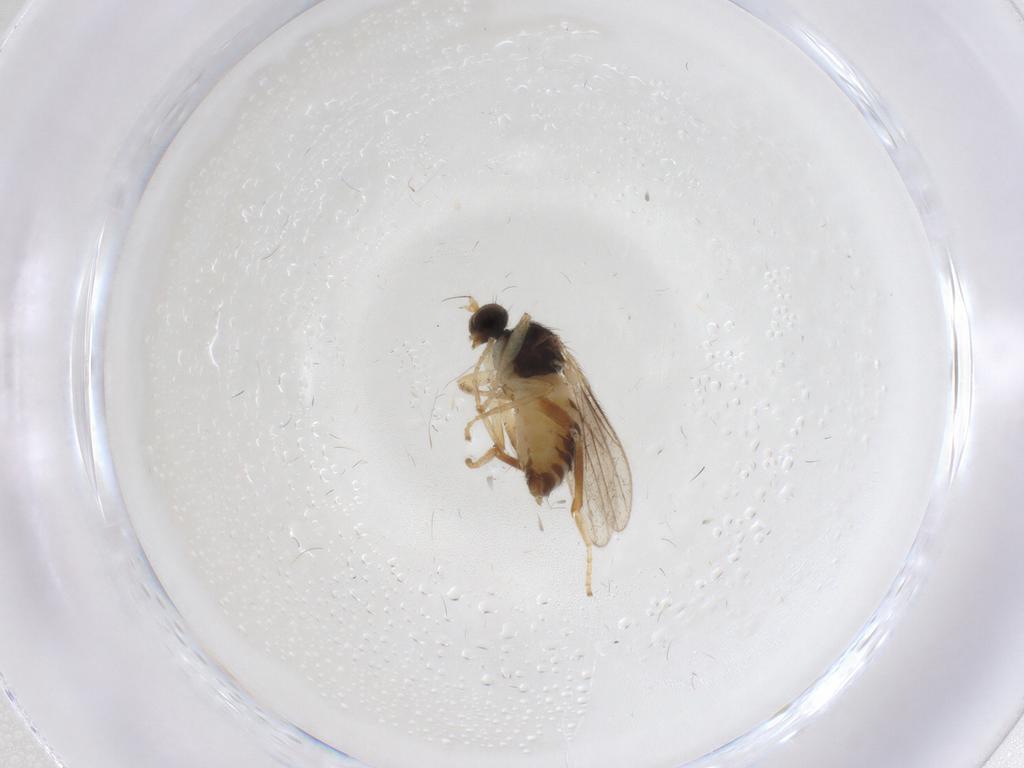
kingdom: Animalia
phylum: Arthropoda
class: Insecta
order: Diptera
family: Hybotidae
